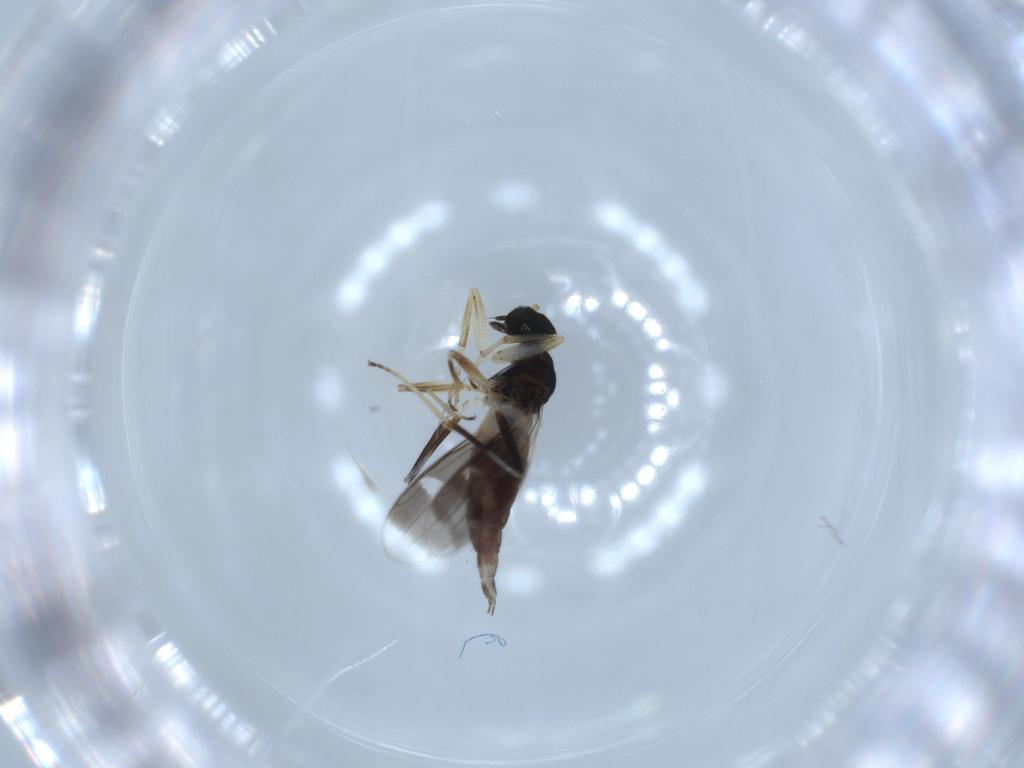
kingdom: Animalia
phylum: Arthropoda
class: Insecta
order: Diptera
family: Hybotidae
